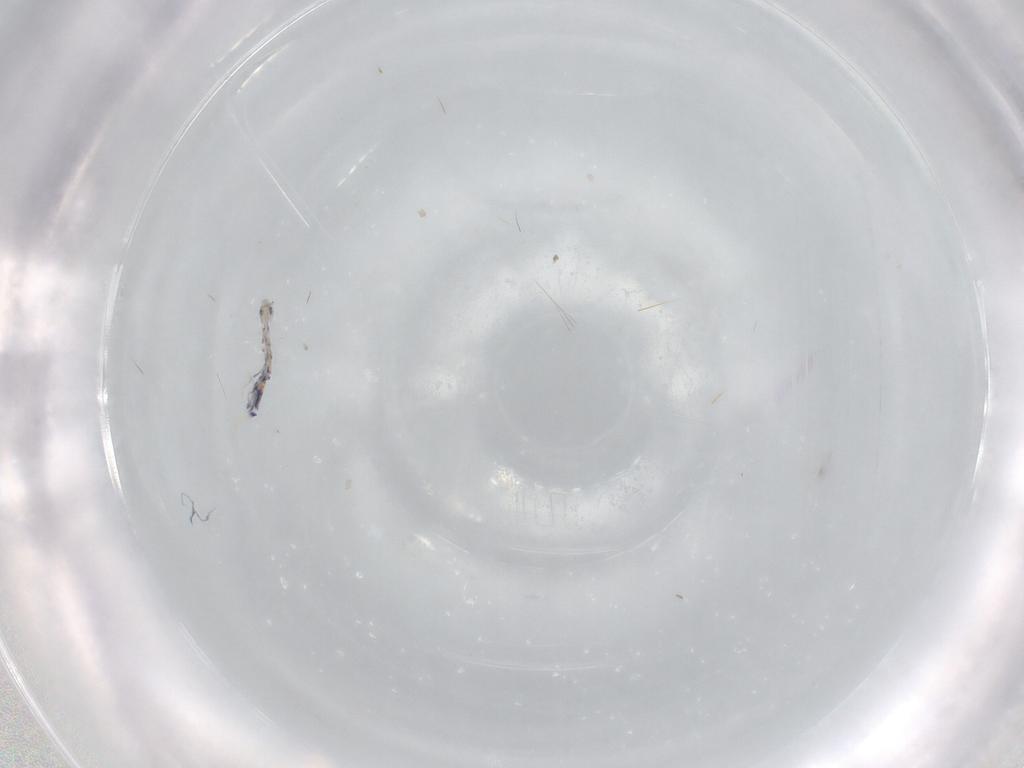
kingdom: Animalia
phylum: Arthropoda
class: Collembola
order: Entomobryomorpha
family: Entomobryidae
